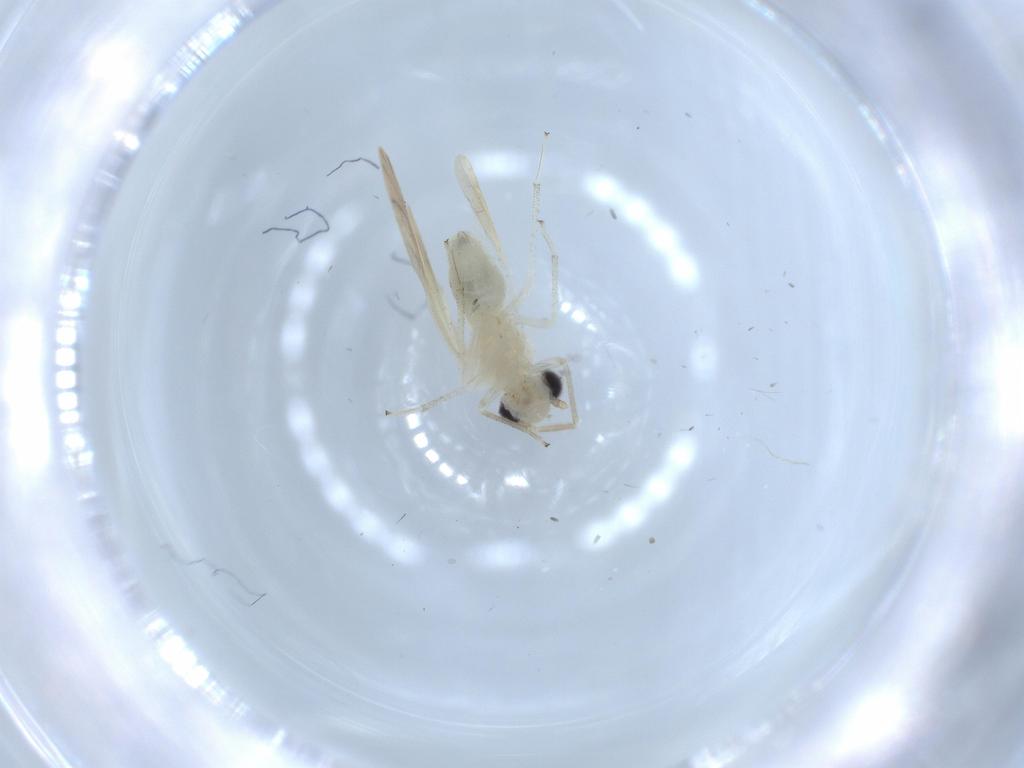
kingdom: Animalia
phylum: Arthropoda
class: Insecta
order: Psocodea
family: Caeciliusidae
